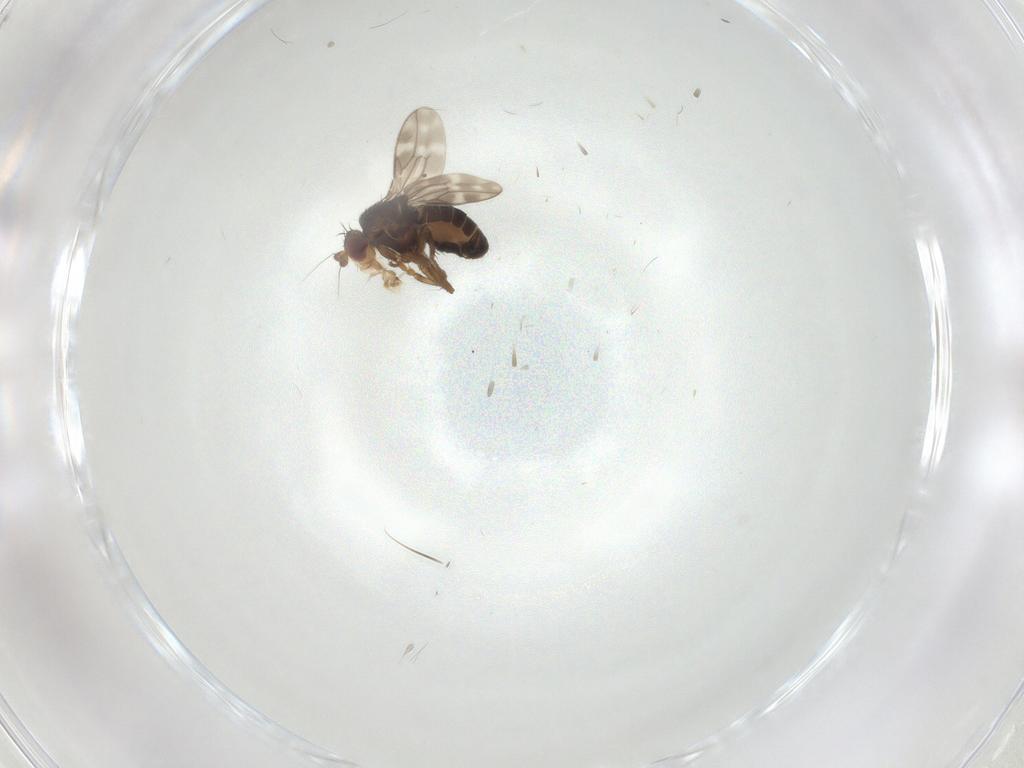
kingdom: Animalia
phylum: Arthropoda
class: Insecta
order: Diptera
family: Sphaeroceridae
